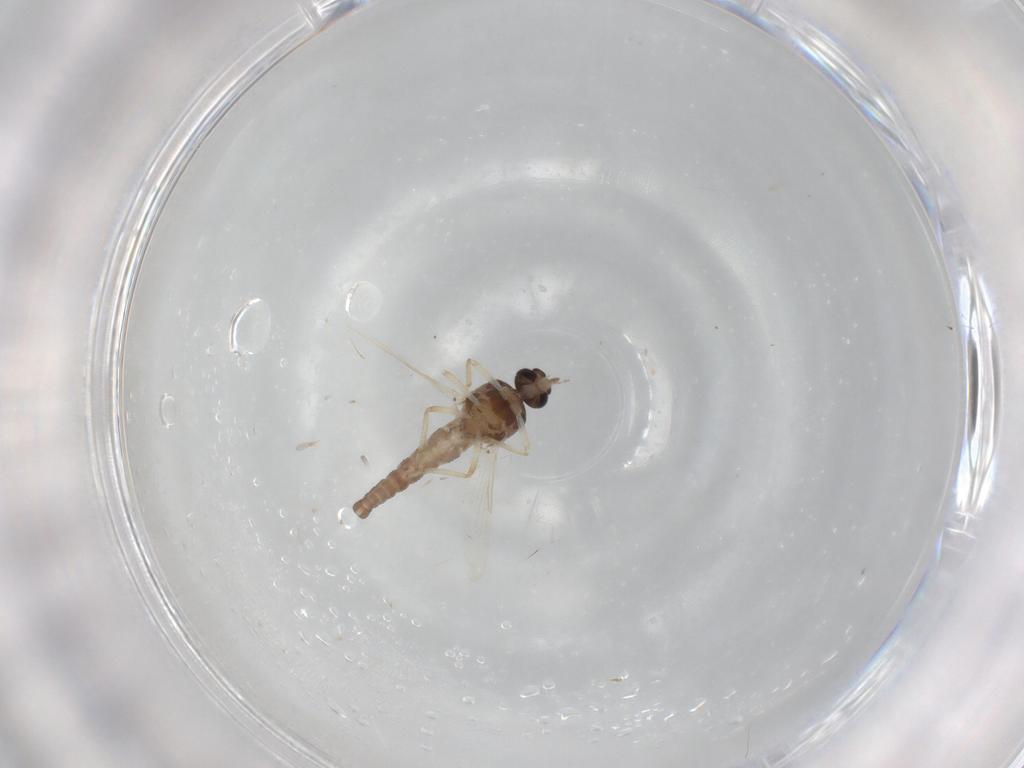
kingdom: Animalia
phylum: Arthropoda
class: Insecta
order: Diptera
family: Ceratopogonidae
